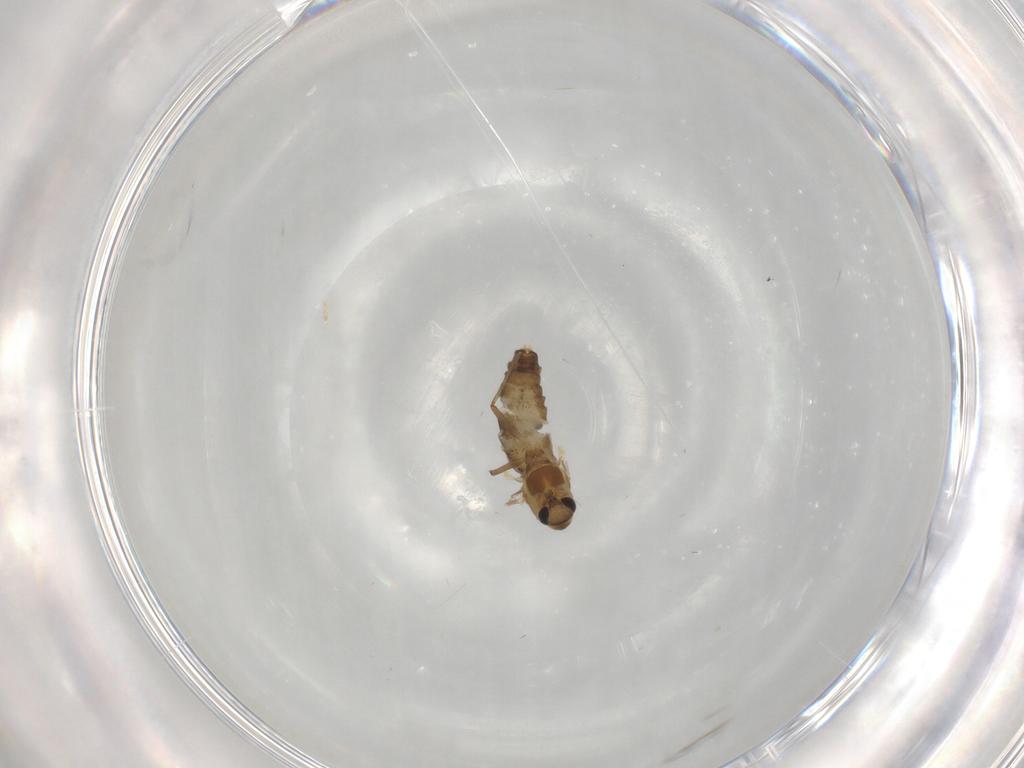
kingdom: Animalia
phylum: Arthropoda
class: Insecta
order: Diptera
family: Chironomidae
